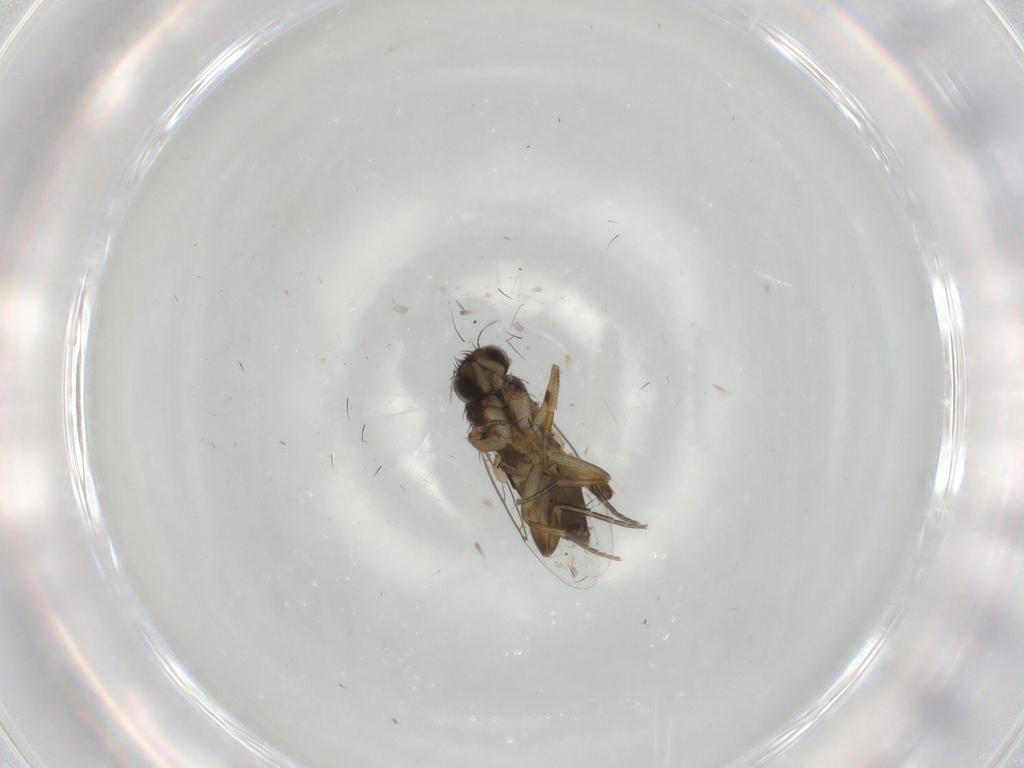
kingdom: Animalia
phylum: Arthropoda
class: Insecta
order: Diptera
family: Phoridae
